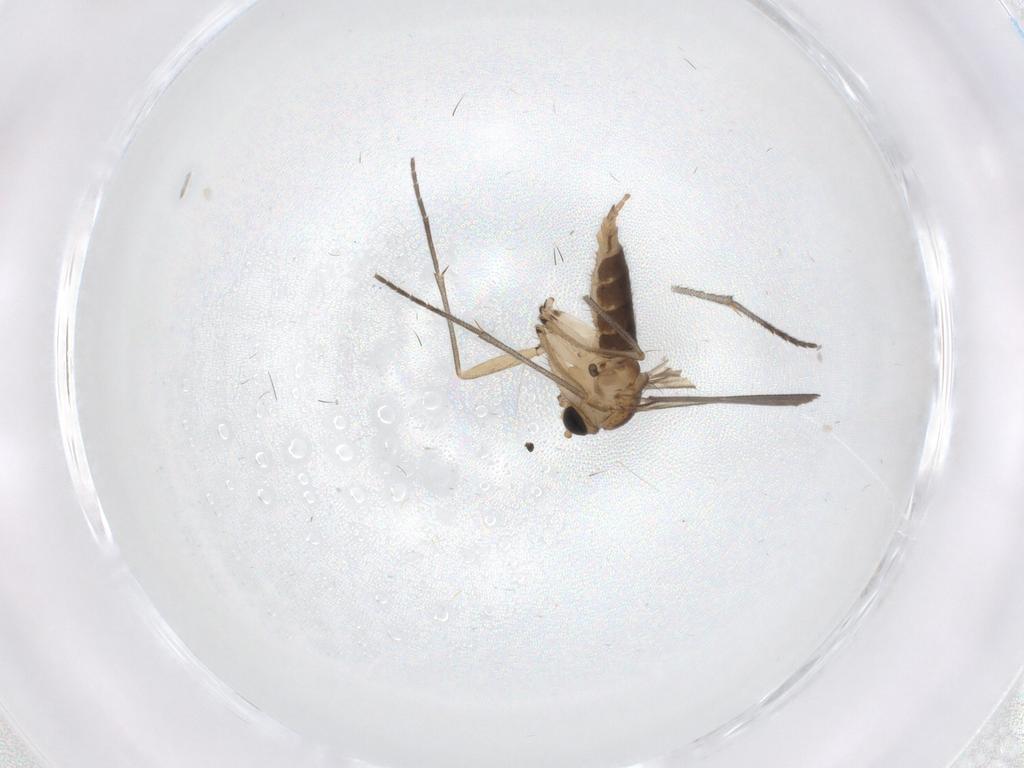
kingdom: Animalia
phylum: Arthropoda
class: Insecta
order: Diptera
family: Sciaridae
